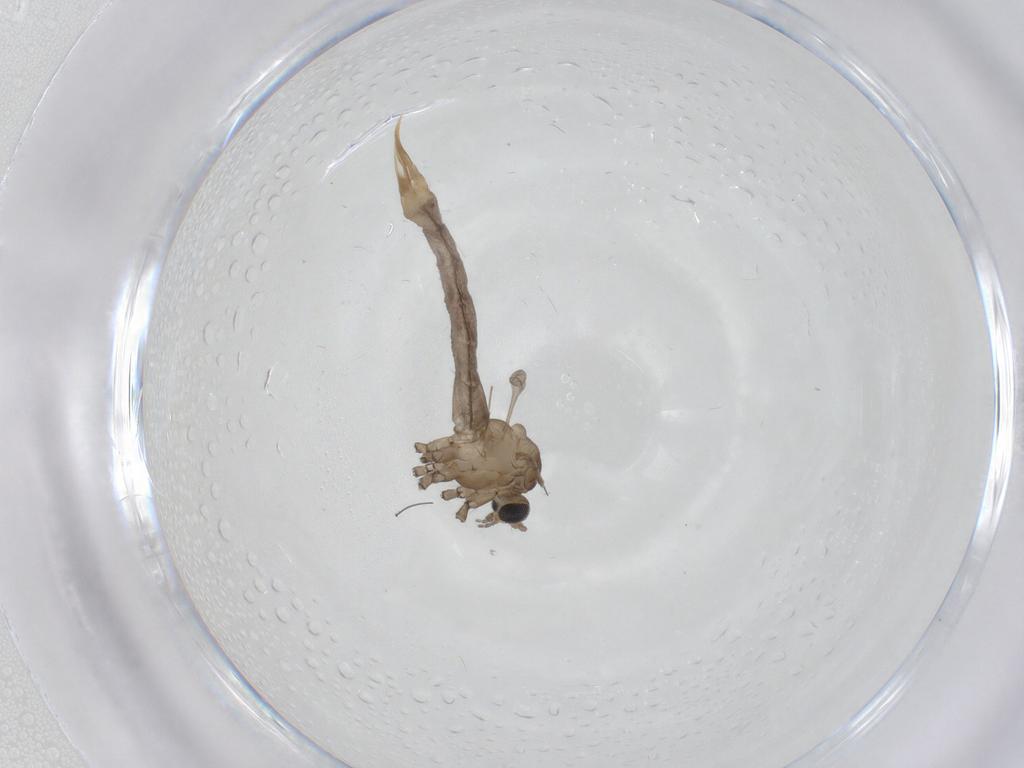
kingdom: Animalia
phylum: Arthropoda
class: Insecta
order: Diptera
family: Limoniidae
